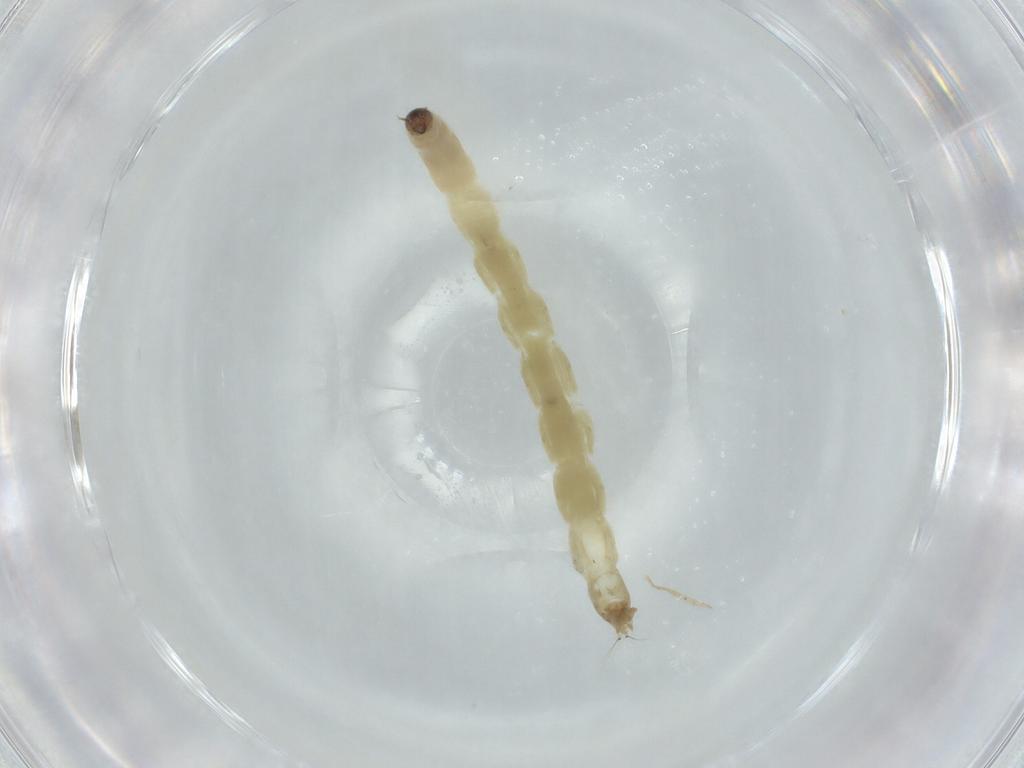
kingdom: Animalia
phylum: Arthropoda
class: Insecta
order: Diptera
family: Chironomidae
